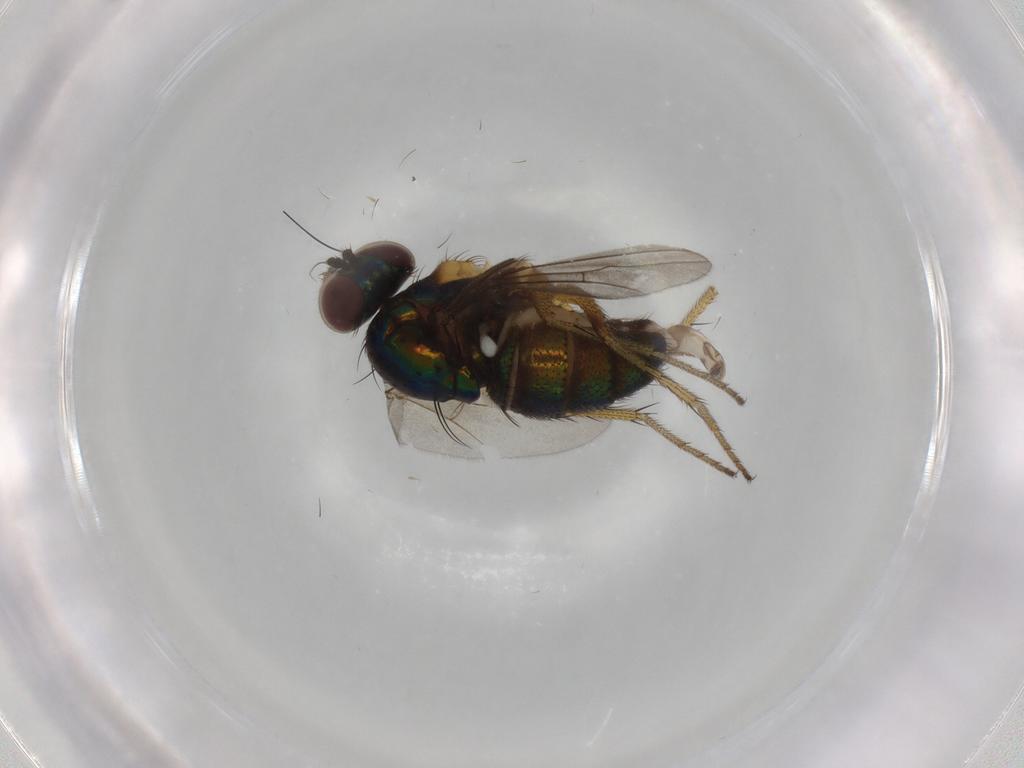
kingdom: Animalia
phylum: Arthropoda
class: Insecta
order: Diptera
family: Dolichopodidae
